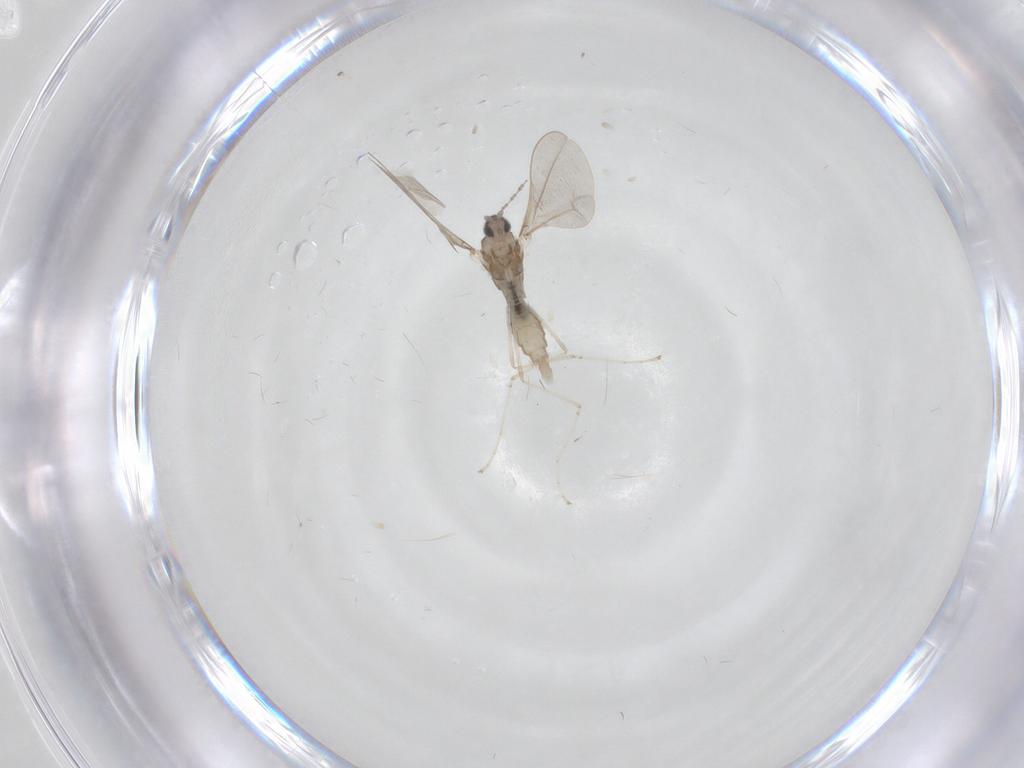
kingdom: Animalia
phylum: Arthropoda
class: Insecta
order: Diptera
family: Cecidomyiidae
